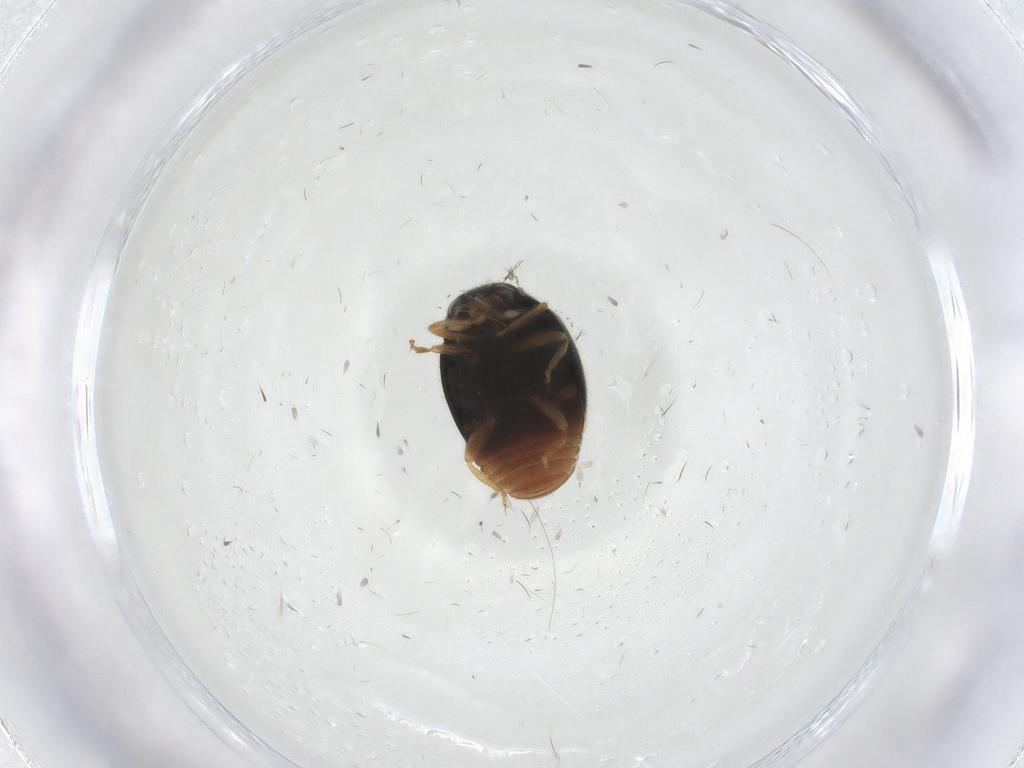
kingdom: Animalia
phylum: Arthropoda
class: Insecta
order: Coleoptera
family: Coccinellidae
